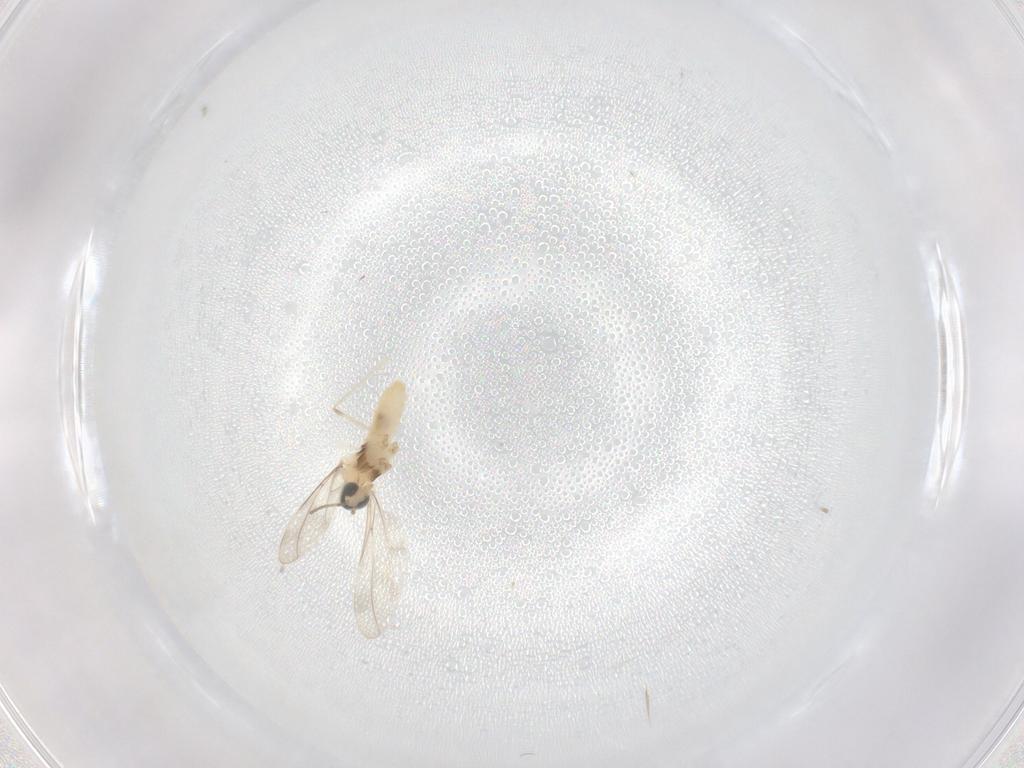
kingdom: Animalia
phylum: Arthropoda
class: Insecta
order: Diptera
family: Cecidomyiidae
